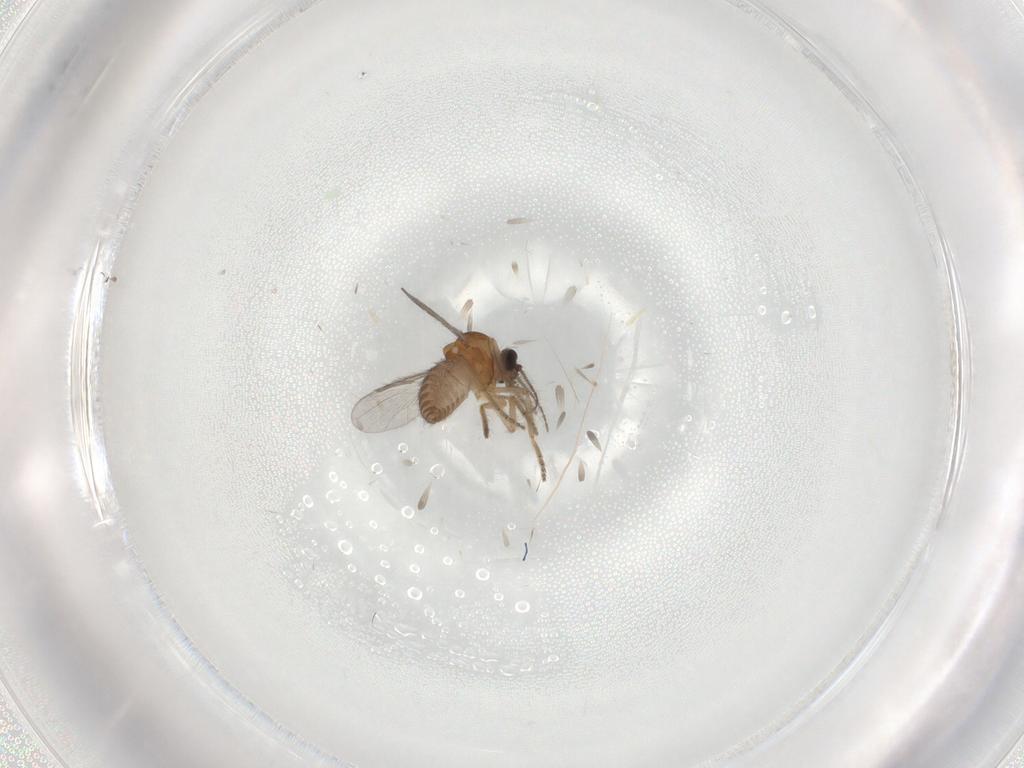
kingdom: Animalia
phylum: Arthropoda
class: Insecta
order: Diptera
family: Ceratopogonidae
